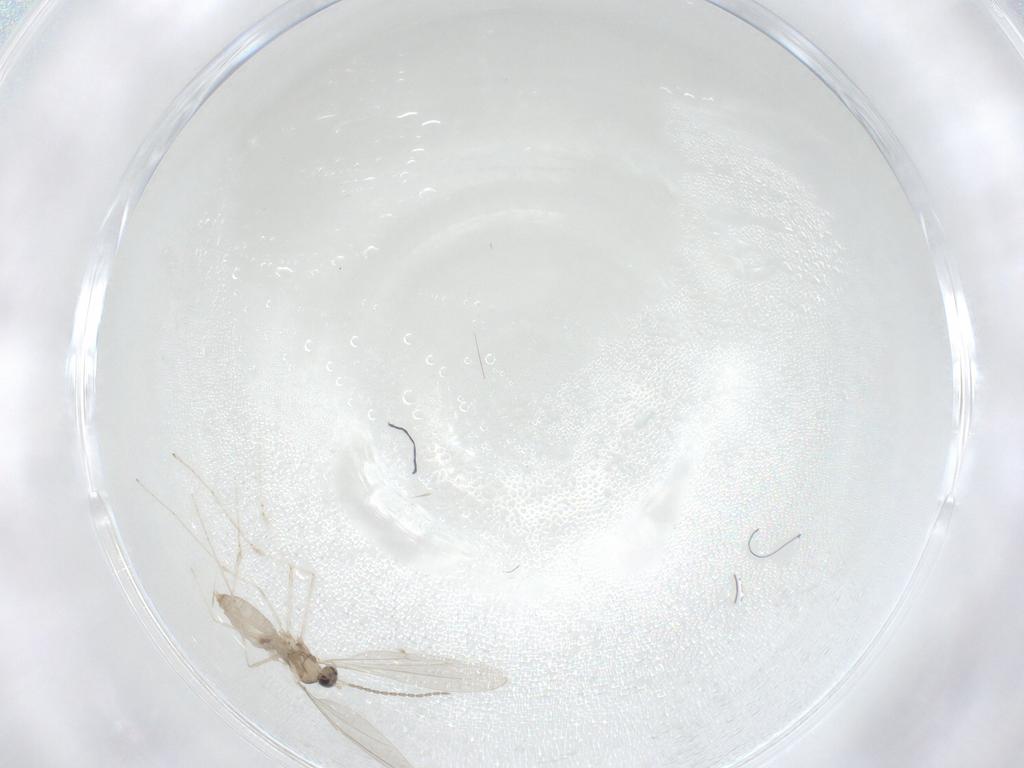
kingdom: Animalia
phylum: Arthropoda
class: Insecta
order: Diptera
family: Cecidomyiidae
